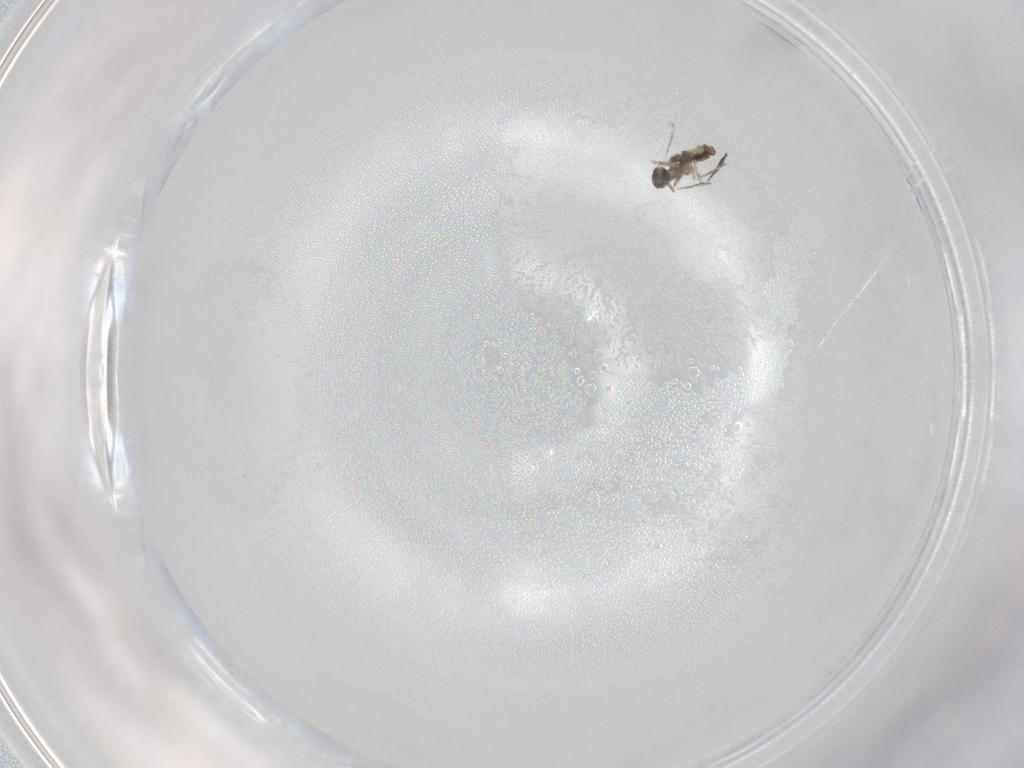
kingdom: Animalia
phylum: Arthropoda
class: Insecta
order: Diptera
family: Cecidomyiidae
